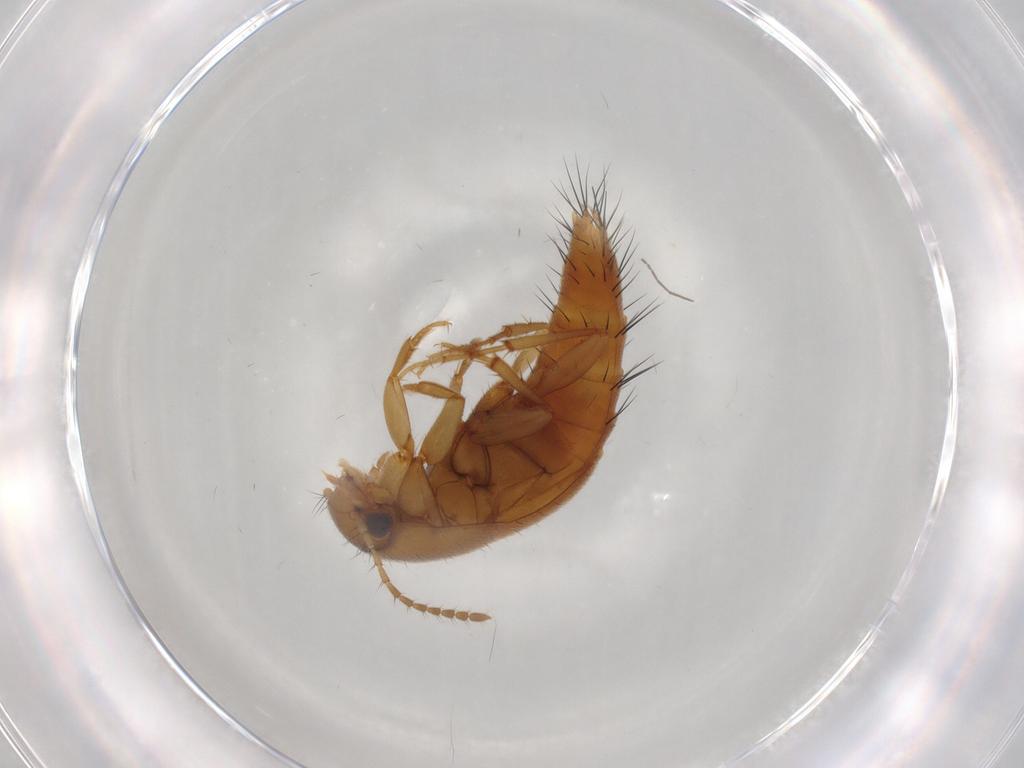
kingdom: Animalia
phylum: Arthropoda
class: Insecta
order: Coleoptera
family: Staphylinidae
